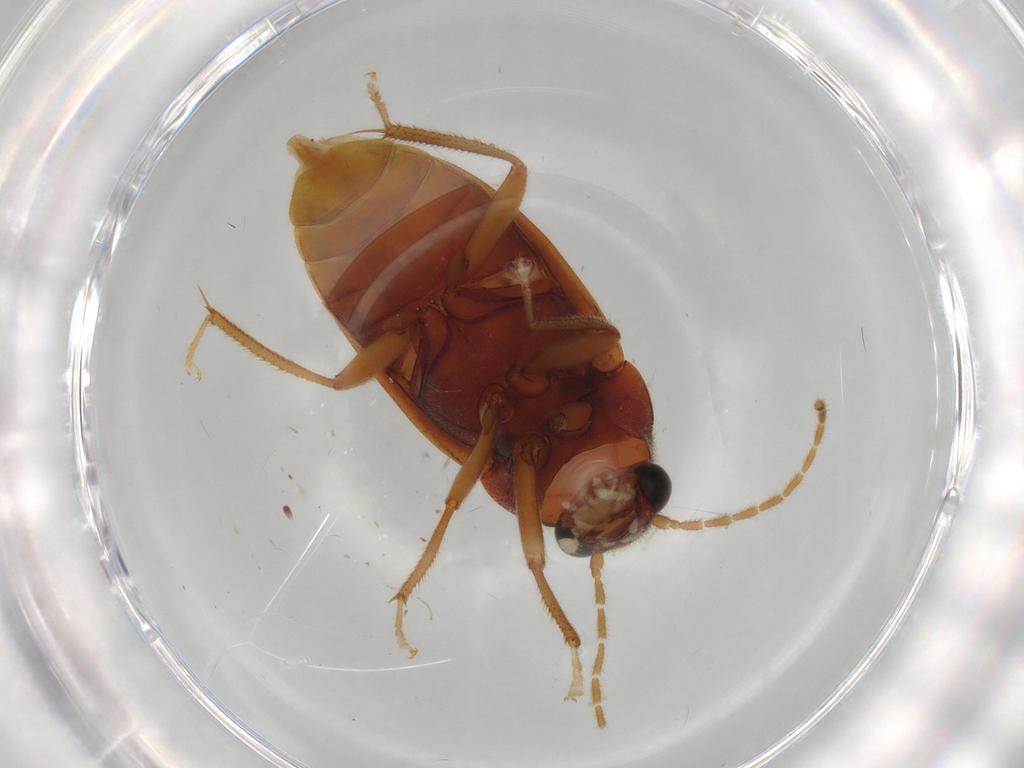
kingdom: Animalia
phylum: Arthropoda
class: Insecta
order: Coleoptera
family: Ptilodactylidae
